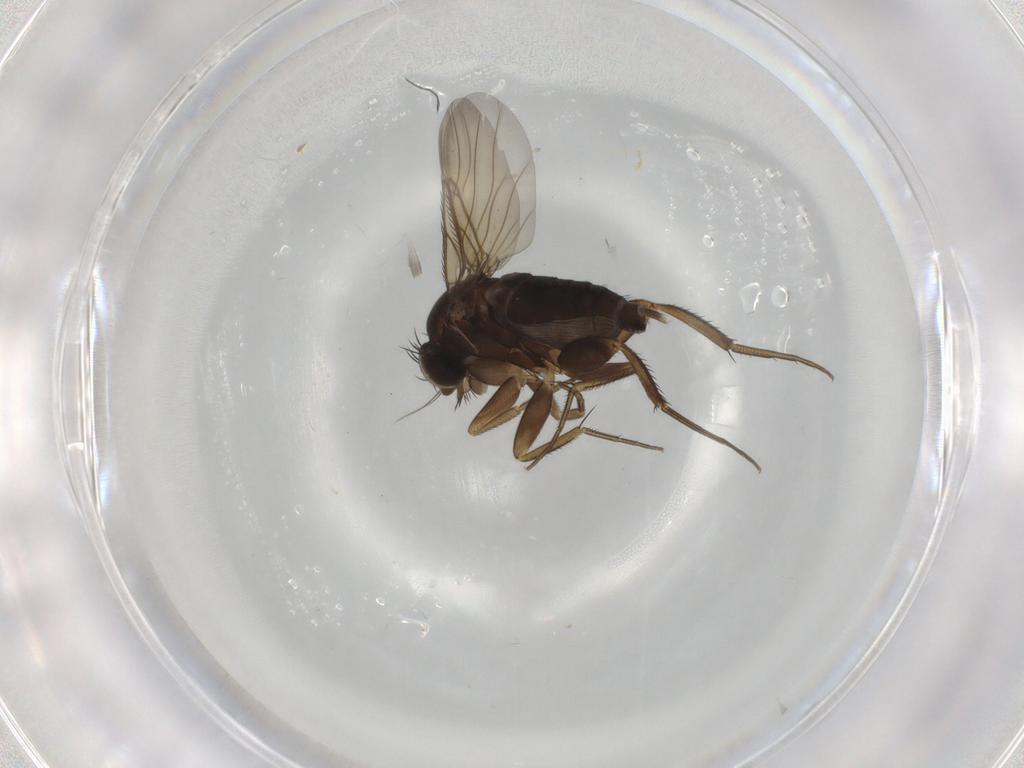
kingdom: Animalia
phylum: Arthropoda
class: Insecta
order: Diptera
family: Phoridae
